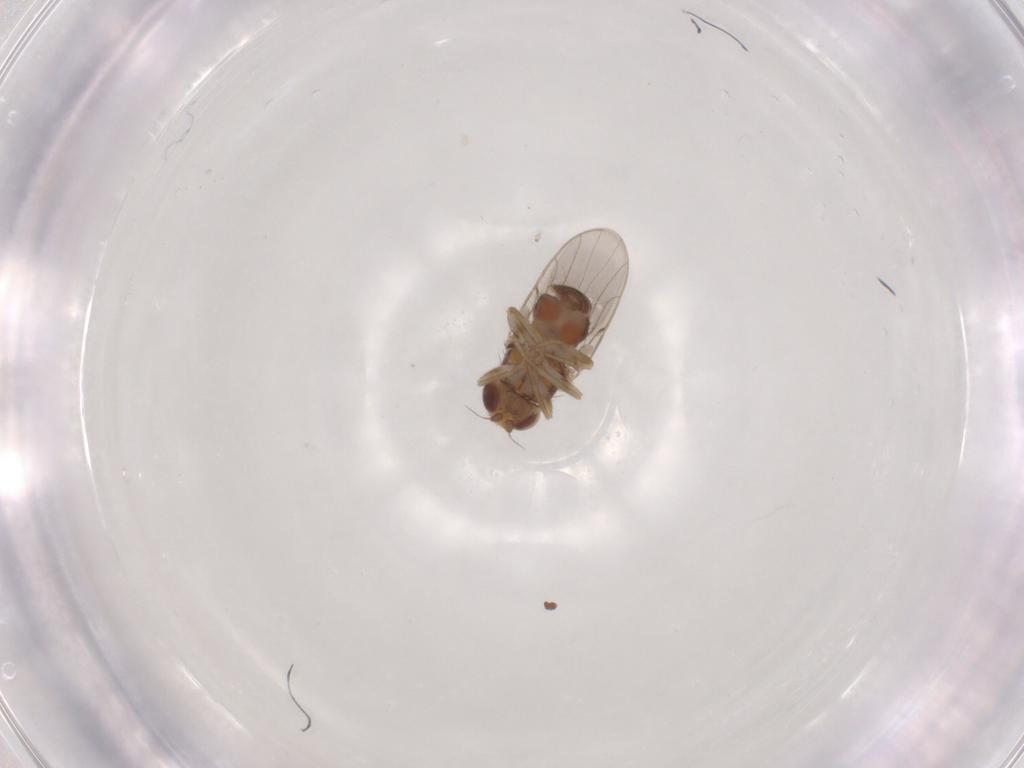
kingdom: Animalia
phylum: Arthropoda
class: Insecta
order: Diptera
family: Chloropidae
